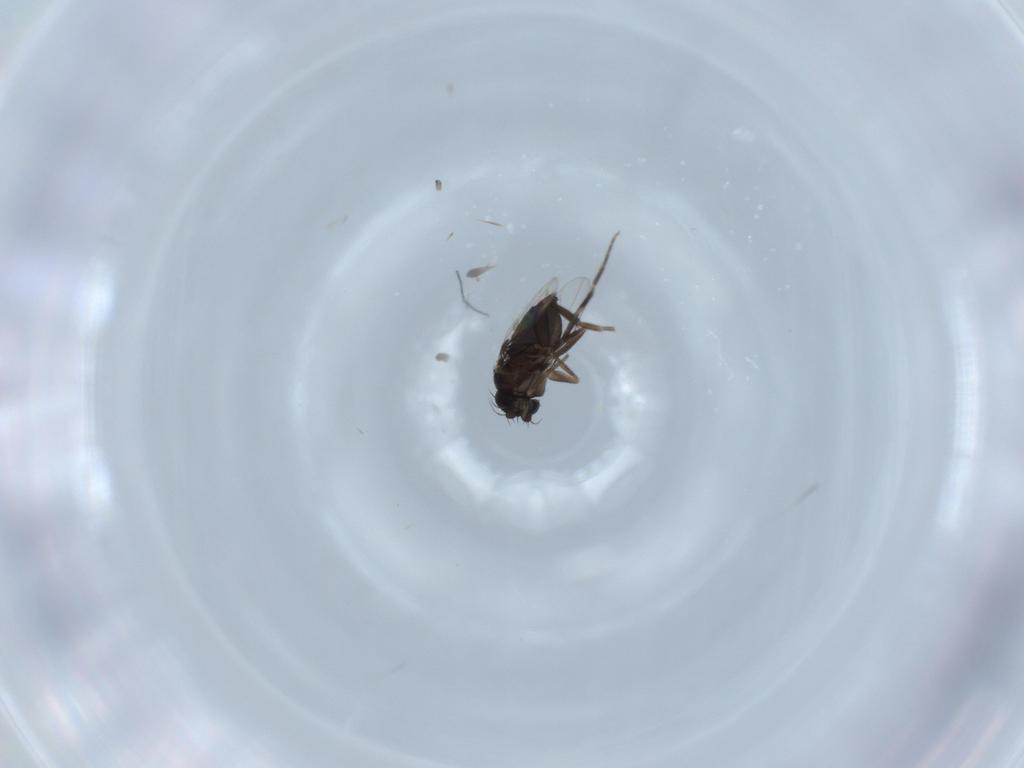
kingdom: Animalia
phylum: Arthropoda
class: Insecta
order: Diptera
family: Phoridae
